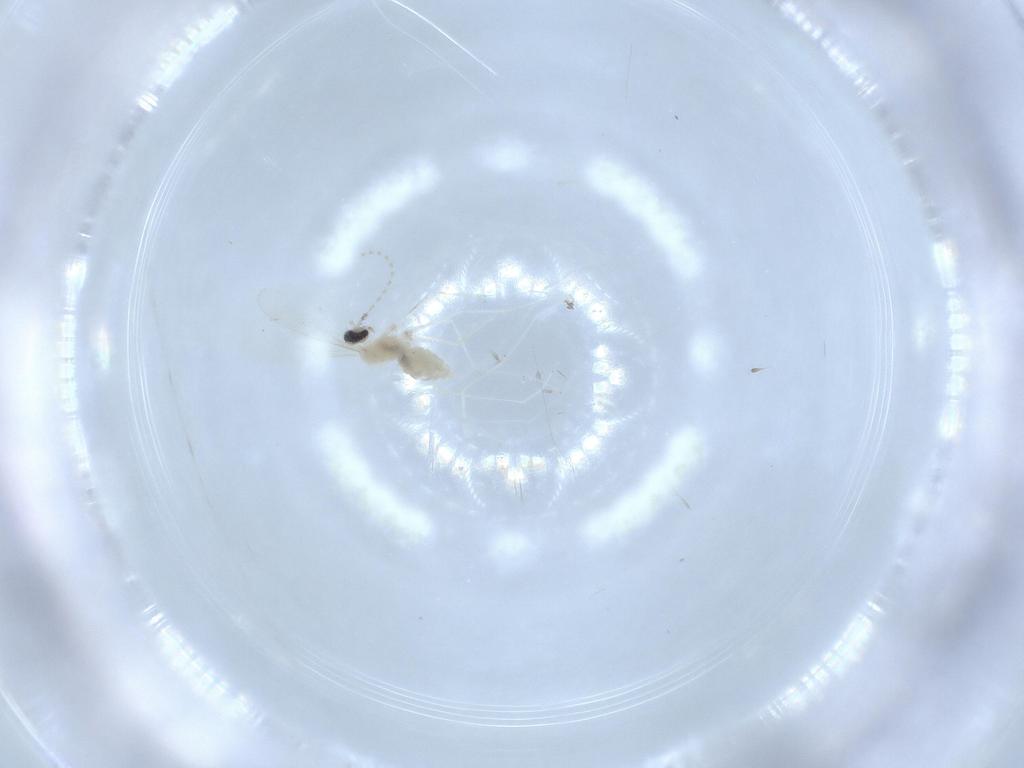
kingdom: Animalia
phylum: Arthropoda
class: Insecta
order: Diptera
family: Cecidomyiidae
